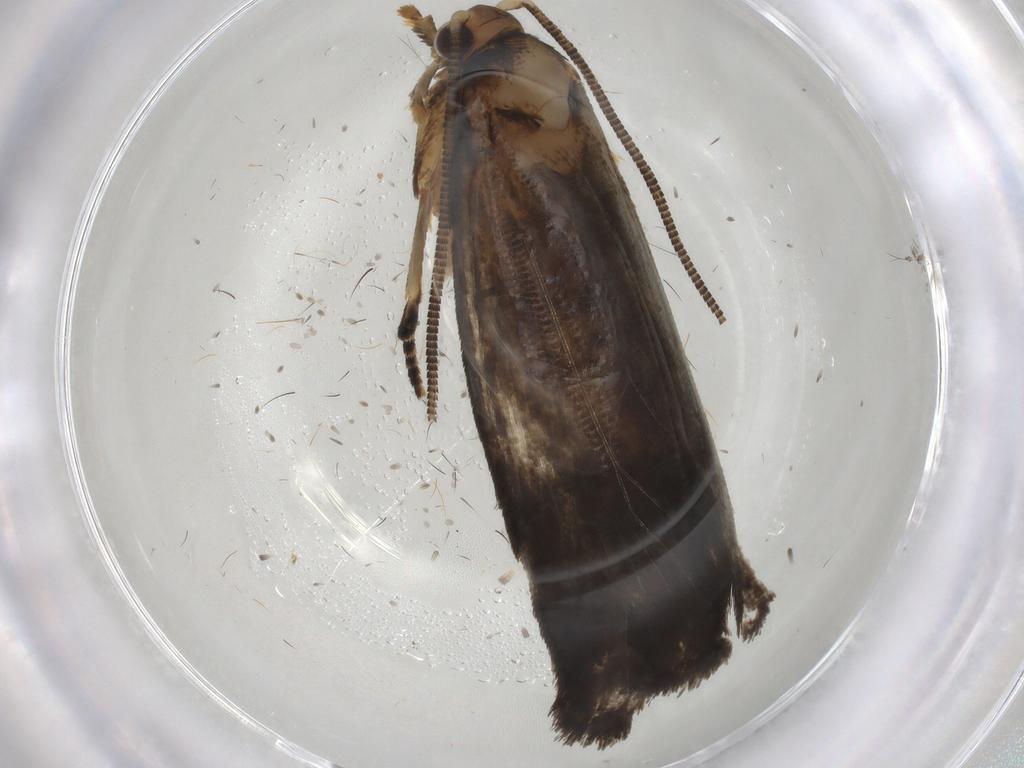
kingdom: Animalia
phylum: Arthropoda
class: Insecta
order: Lepidoptera
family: Tineidae
